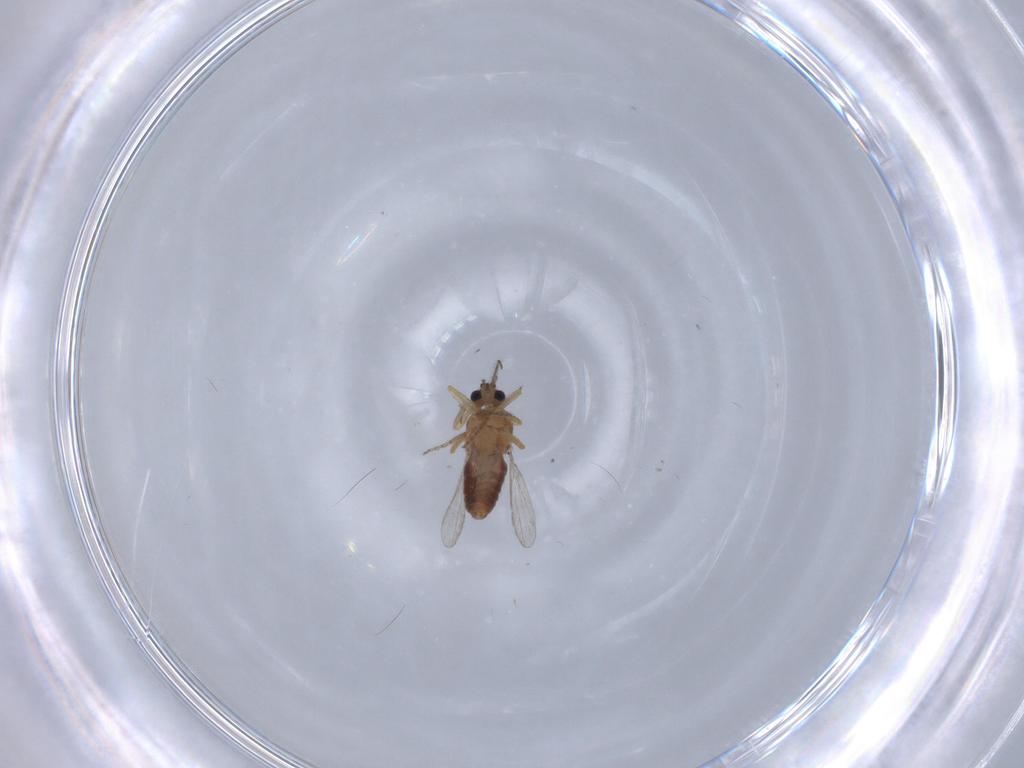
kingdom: Animalia
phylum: Arthropoda
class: Insecta
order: Diptera
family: Ceratopogonidae
